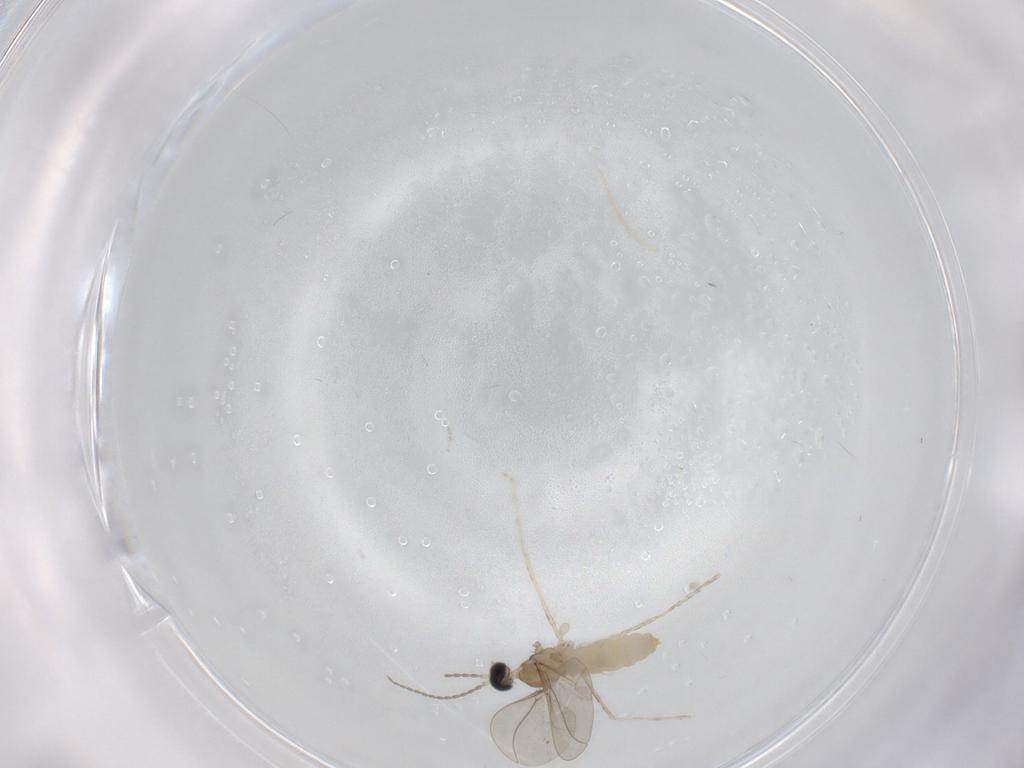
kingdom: Animalia
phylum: Arthropoda
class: Insecta
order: Diptera
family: Cecidomyiidae
